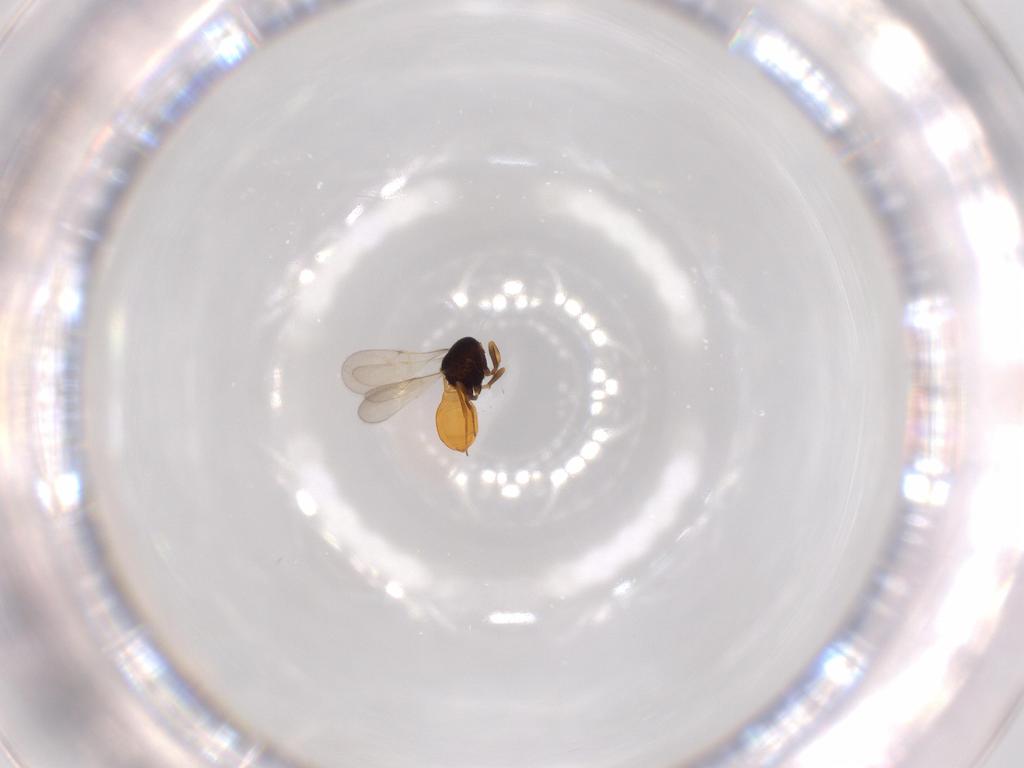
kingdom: Animalia
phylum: Arthropoda
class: Insecta
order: Hymenoptera
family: Scelionidae
